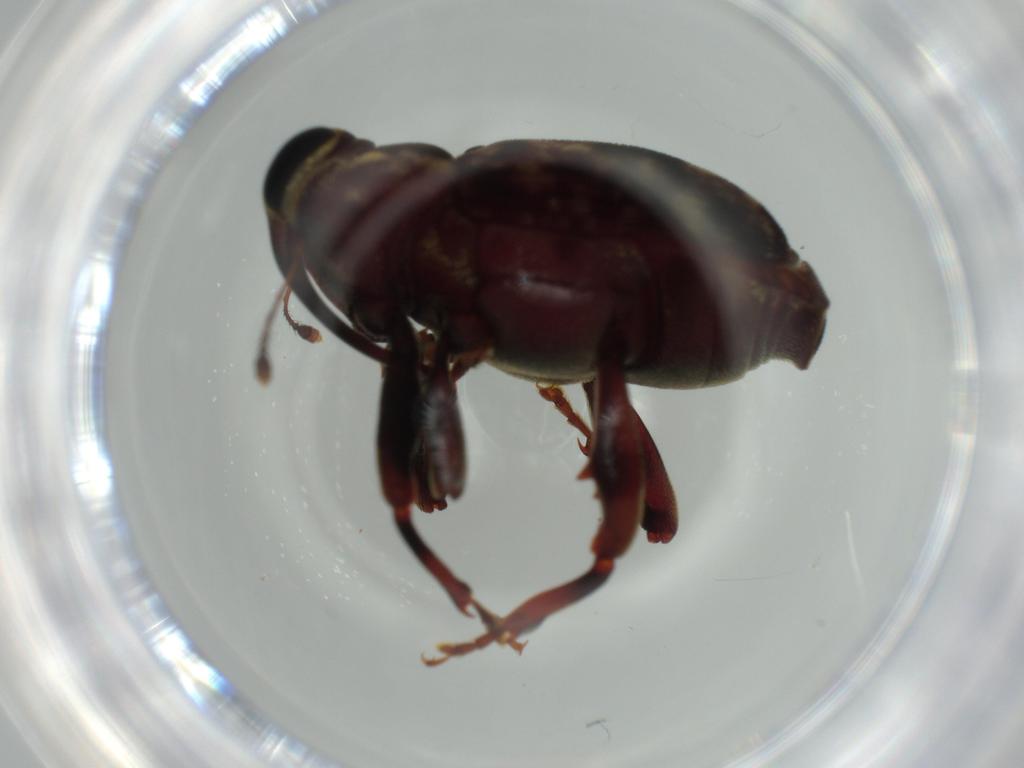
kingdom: Animalia
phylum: Arthropoda
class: Insecta
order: Coleoptera
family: Curculionidae
